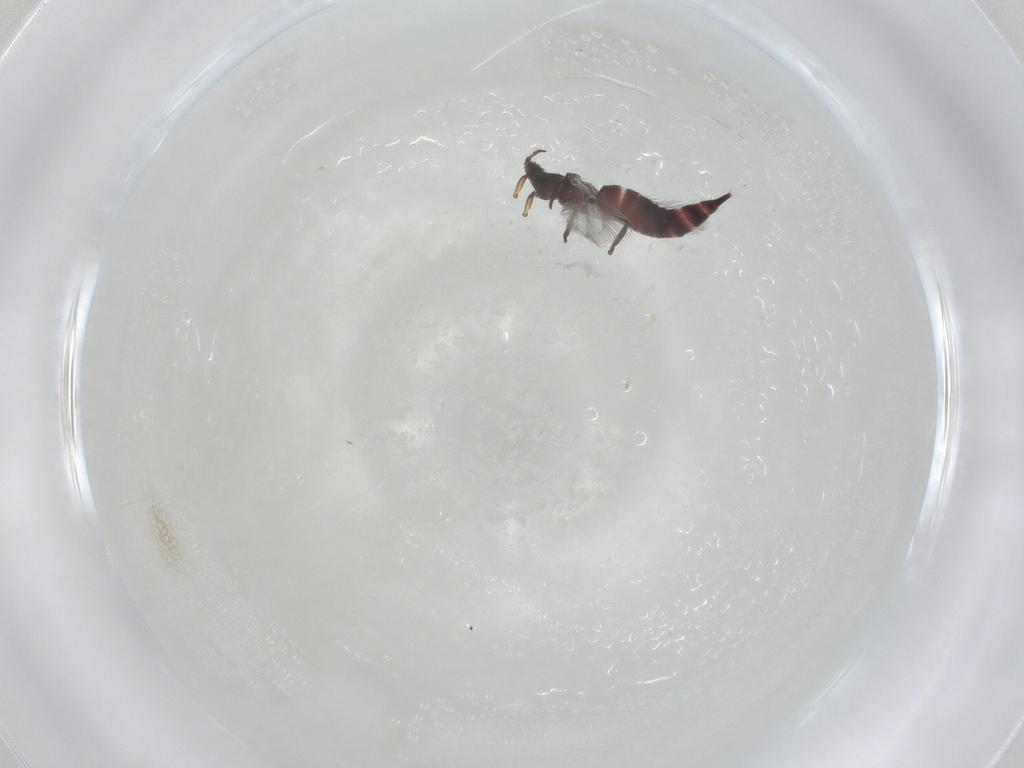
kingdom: Animalia
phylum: Arthropoda
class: Insecta
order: Thysanoptera
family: Phlaeothripidae
